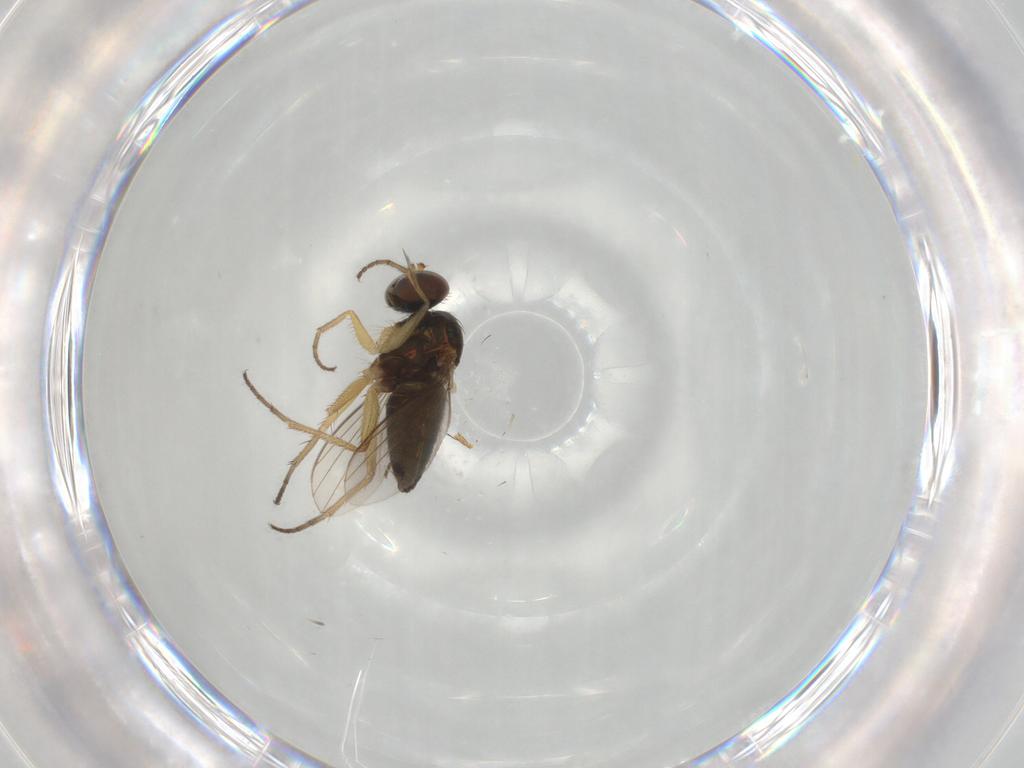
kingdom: Animalia
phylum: Arthropoda
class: Insecta
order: Diptera
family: Dolichopodidae
